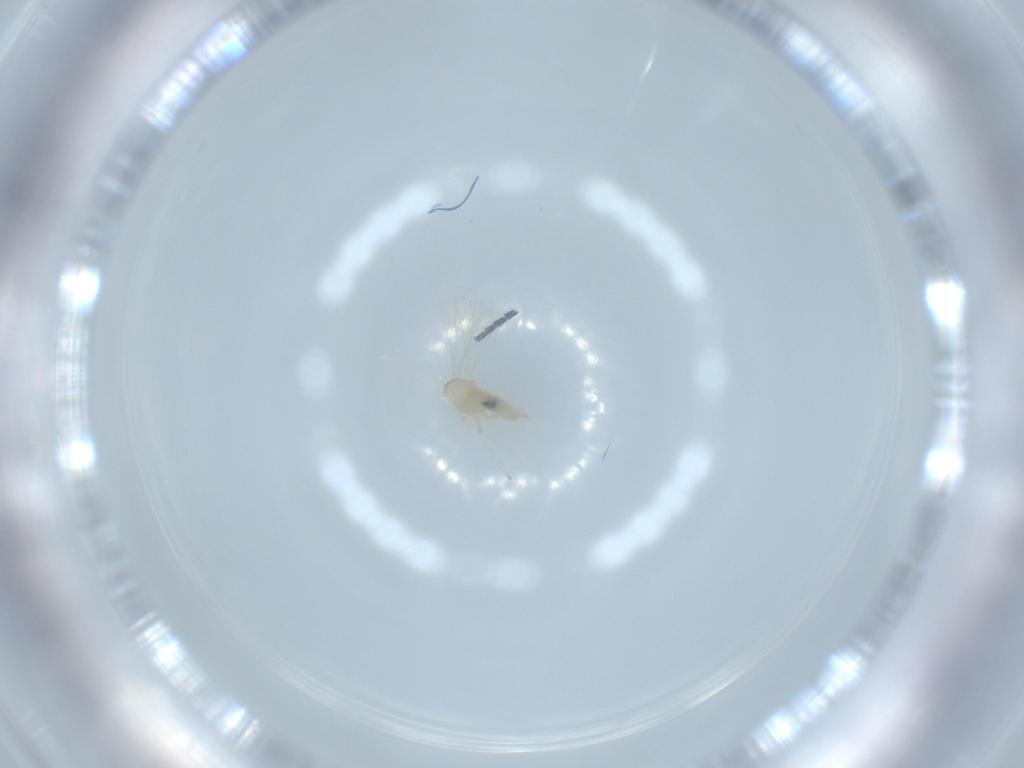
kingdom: Animalia
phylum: Arthropoda
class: Insecta
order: Diptera
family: Cecidomyiidae
